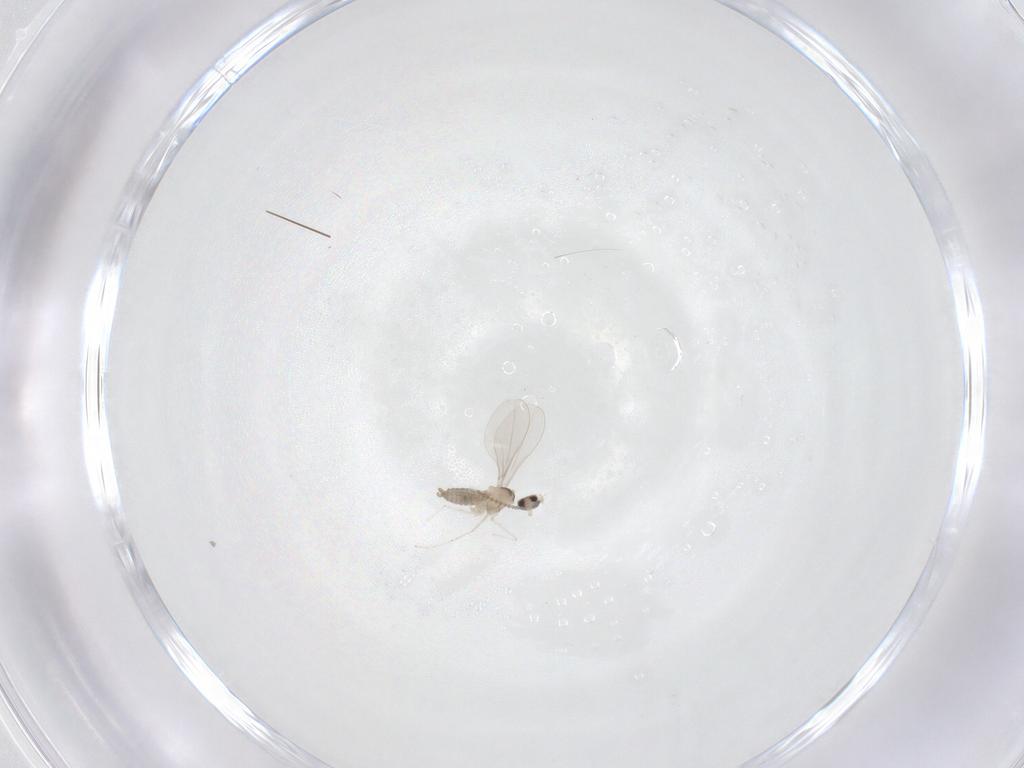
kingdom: Animalia
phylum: Arthropoda
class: Insecta
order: Diptera
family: Cecidomyiidae
